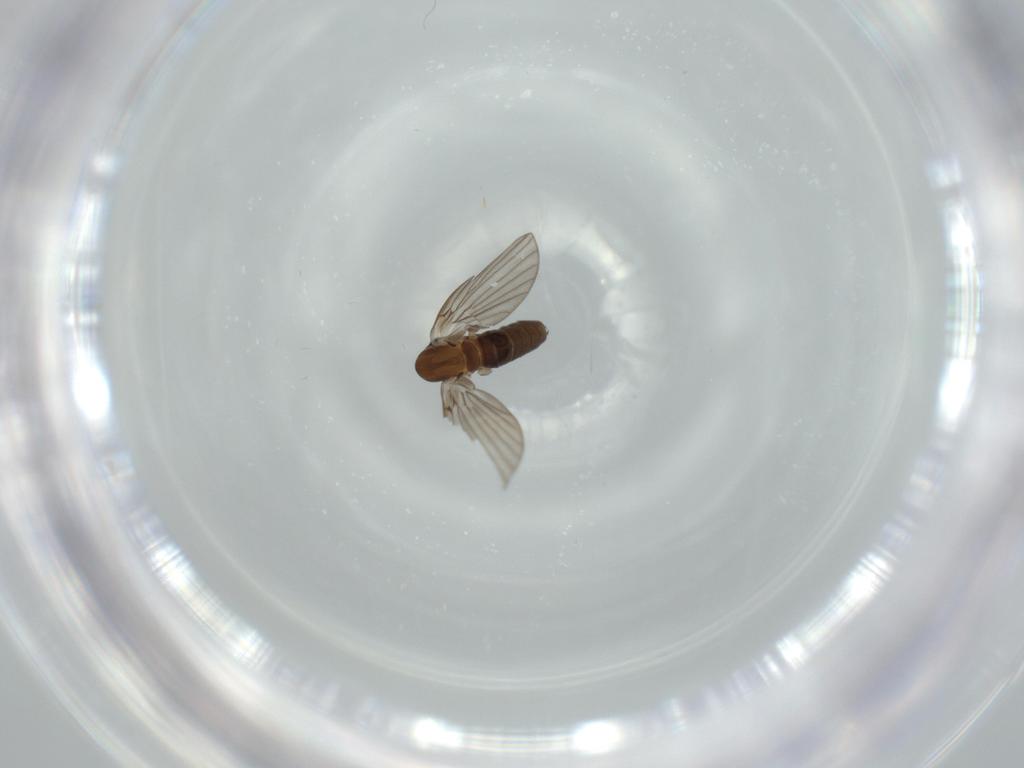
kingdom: Animalia
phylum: Arthropoda
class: Insecta
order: Diptera
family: Psychodidae
